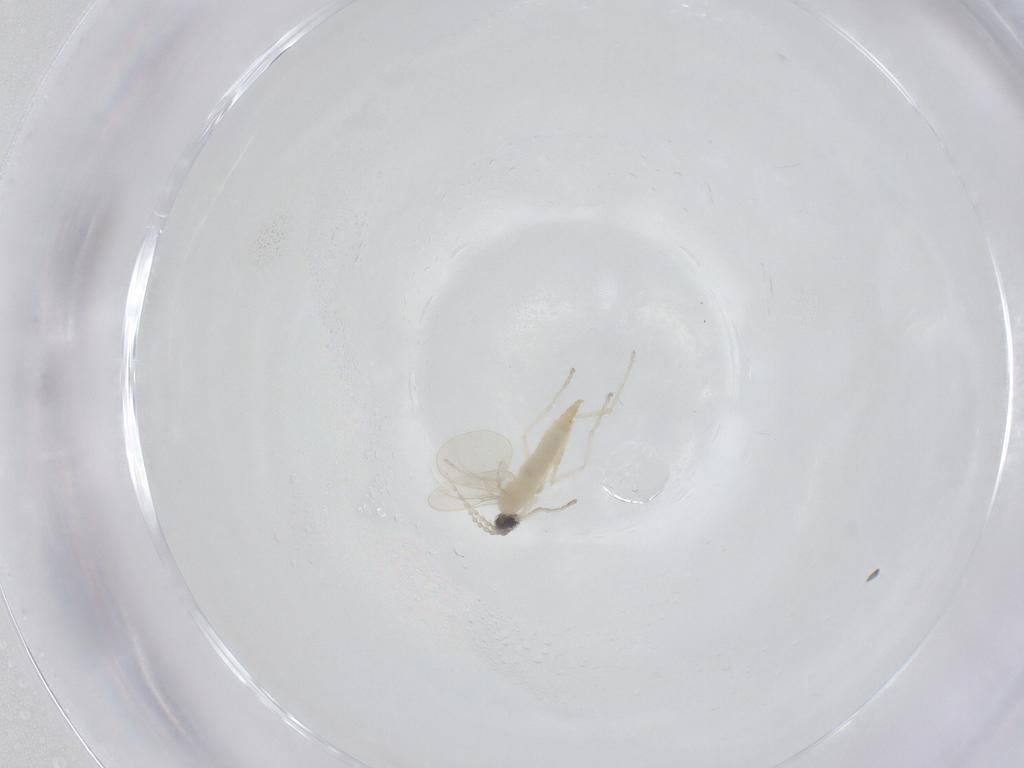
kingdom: Animalia
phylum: Arthropoda
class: Insecta
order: Diptera
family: Cecidomyiidae
